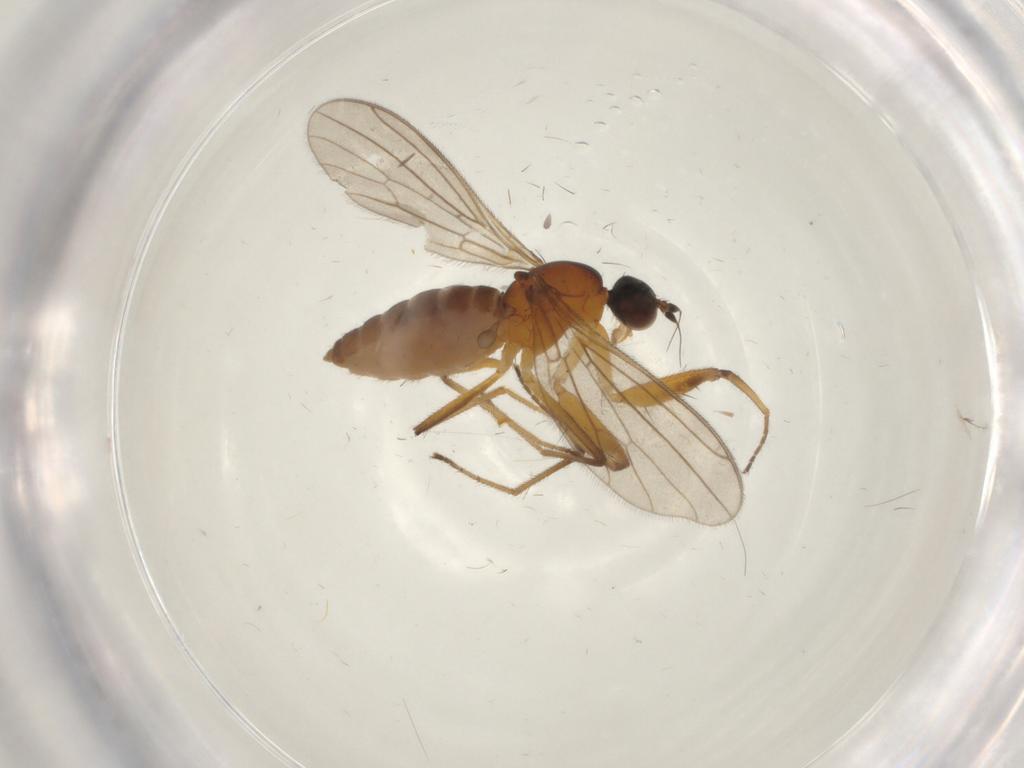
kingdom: Animalia
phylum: Arthropoda
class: Insecta
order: Diptera
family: Empididae
